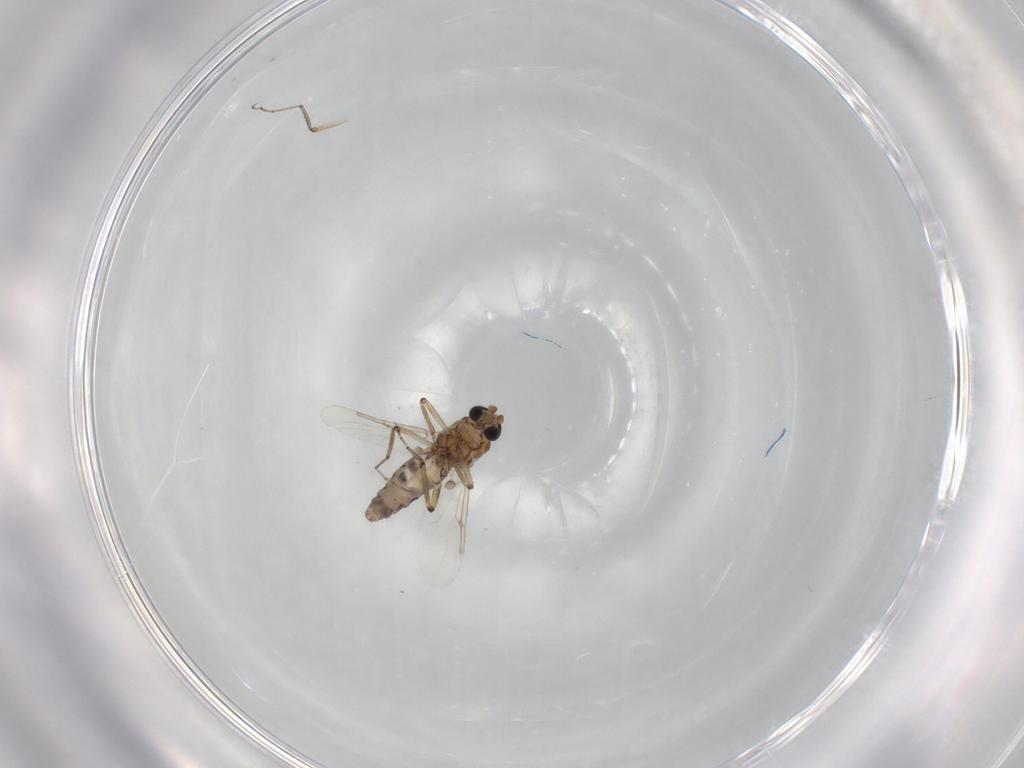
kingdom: Animalia
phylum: Arthropoda
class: Insecta
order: Diptera
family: Ceratopogonidae
